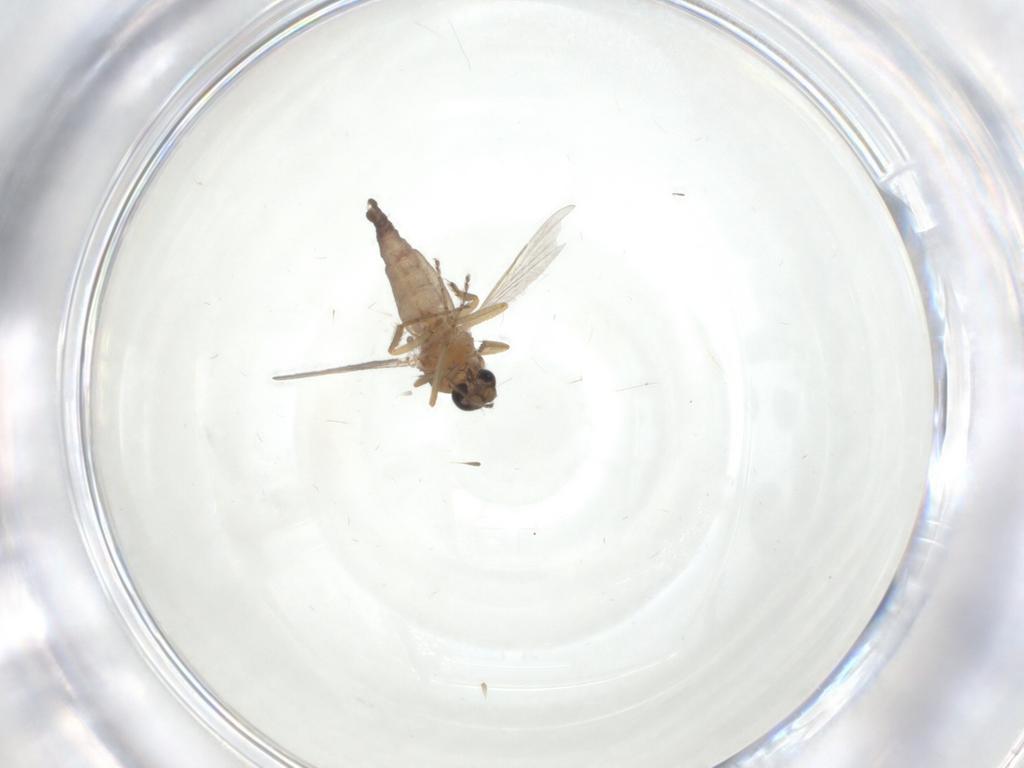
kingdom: Animalia
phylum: Arthropoda
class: Insecta
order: Diptera
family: Ceratopogonidae
